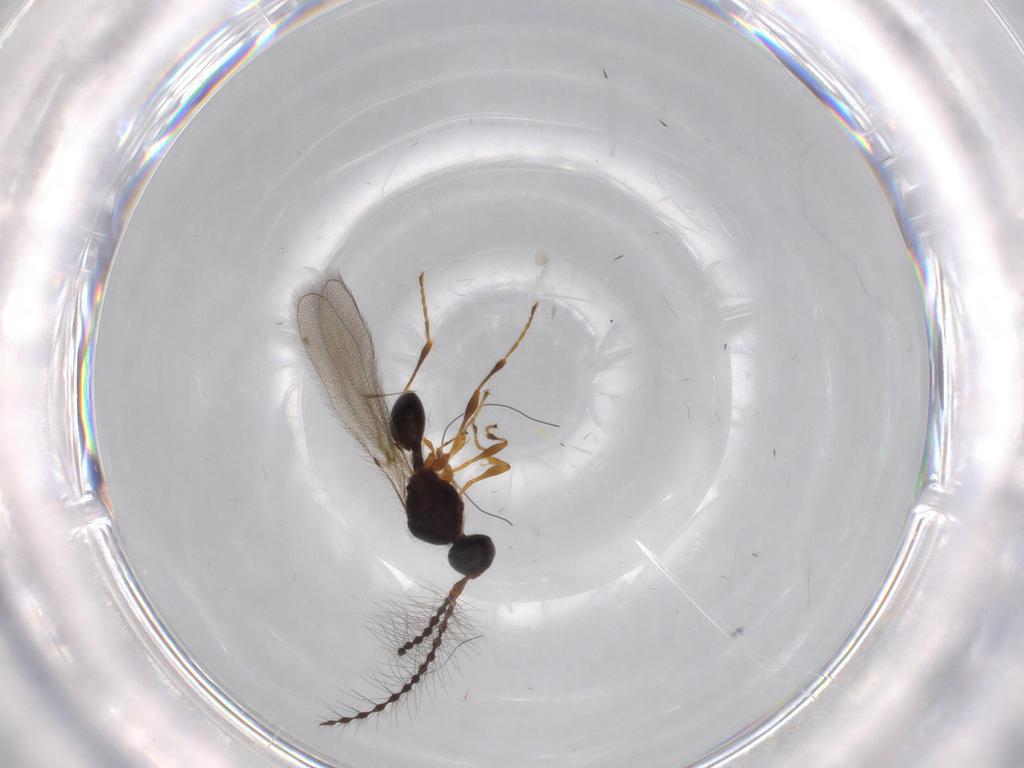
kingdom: Animalia
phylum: Arthropoda
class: Insecta
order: Hymenoptera
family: Diapriidae
